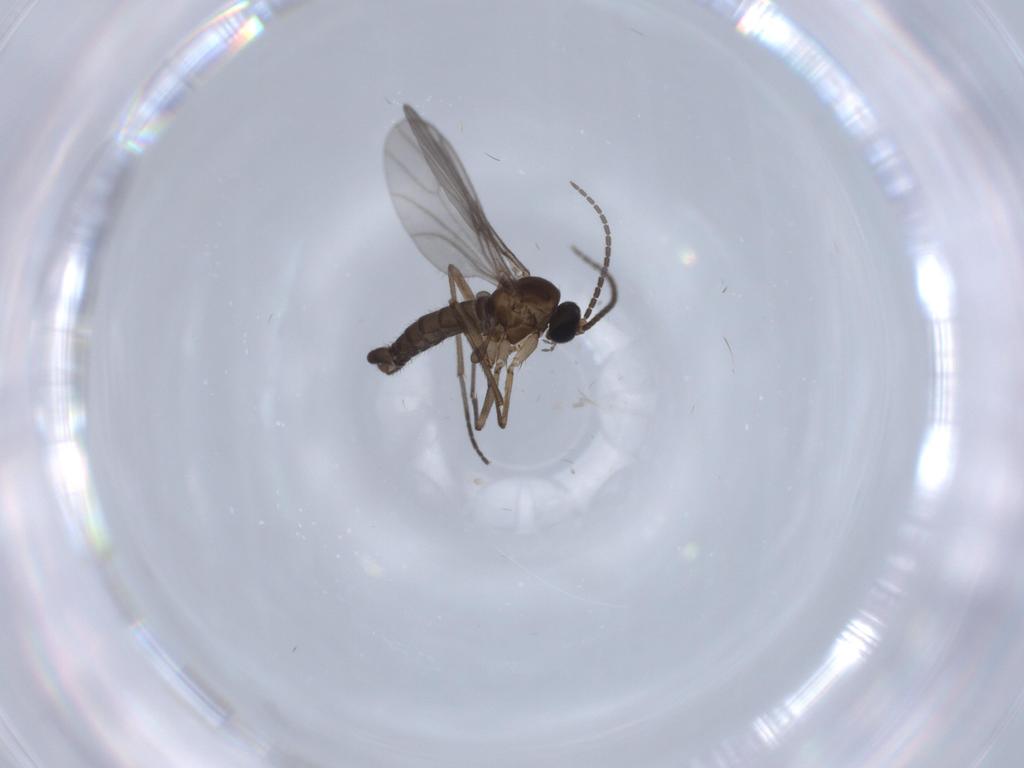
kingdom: Animalia
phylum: Arthropoda
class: Insecta
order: Diptera
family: Sciaridae
